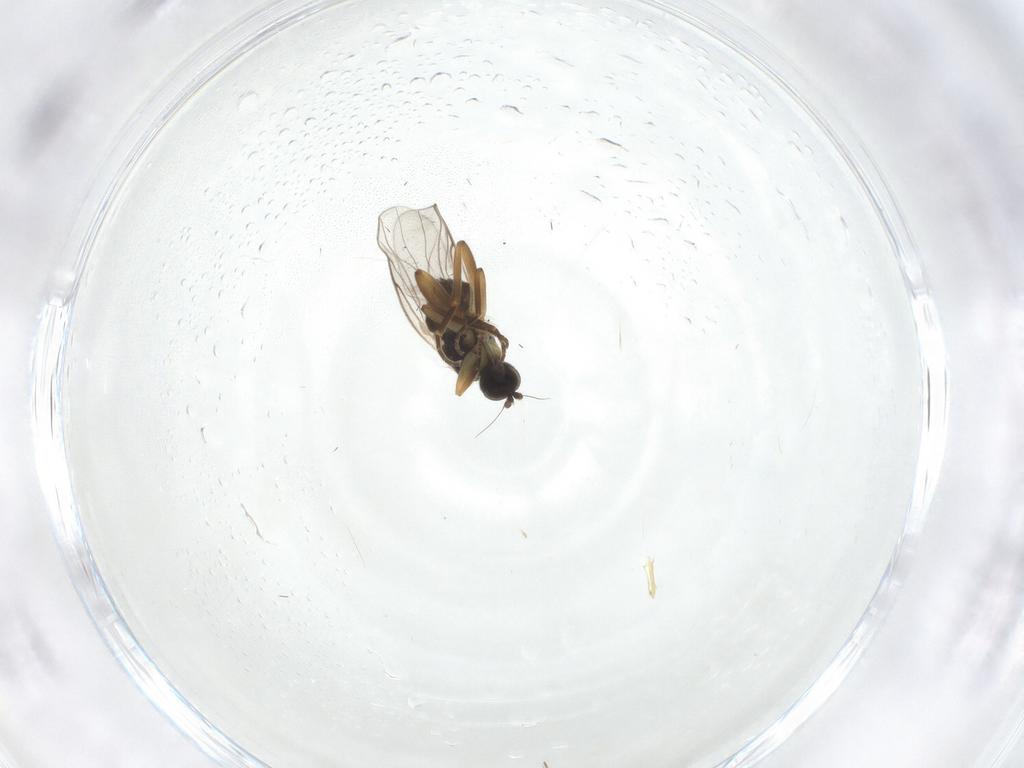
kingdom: Animalia
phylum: Arthropoda
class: Insecta
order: Diptera
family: Hybotidae
